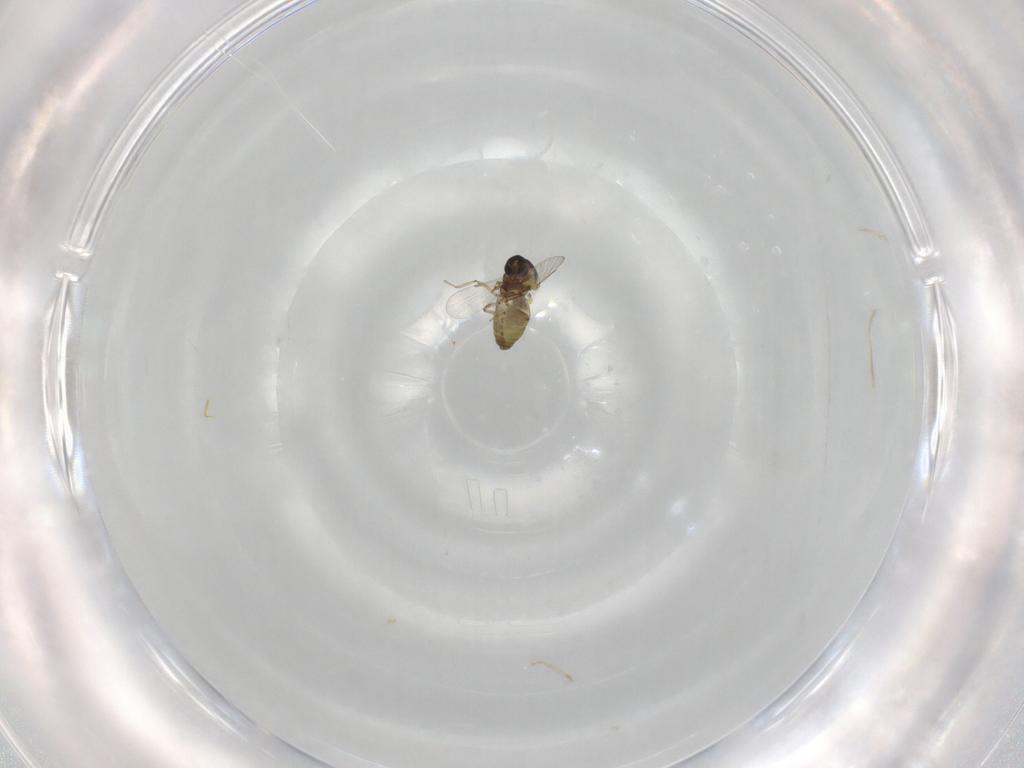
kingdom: Animalia
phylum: Arthropoda
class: Insecta
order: Diptera
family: Ceratopogonidae
